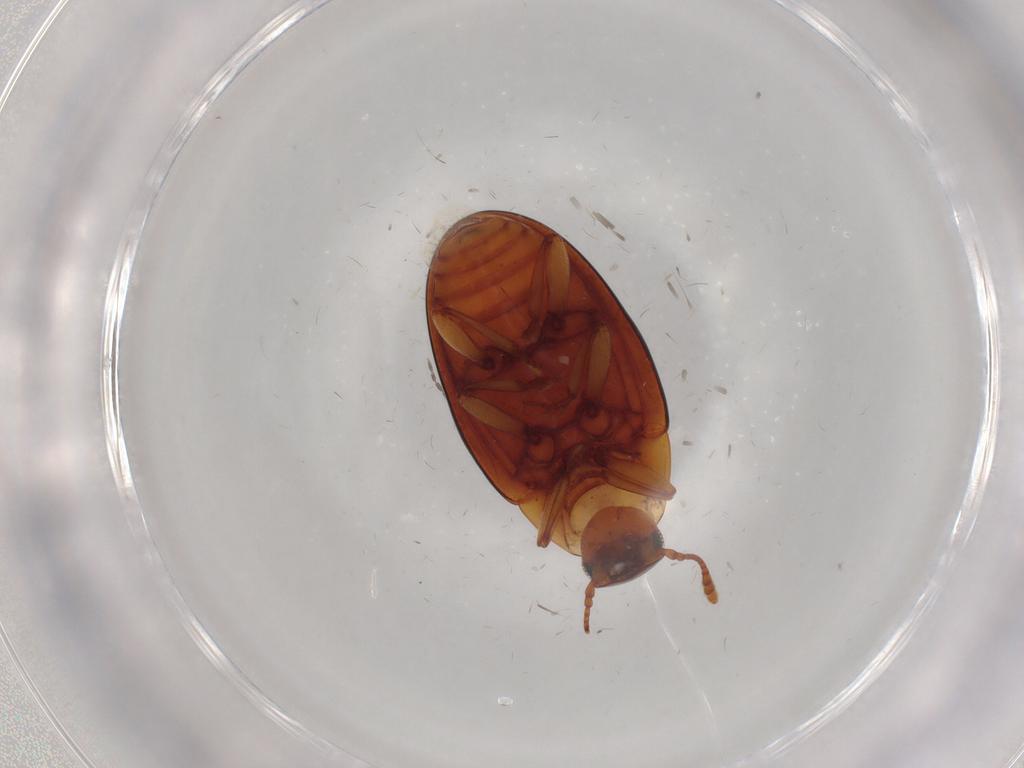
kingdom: Animalia
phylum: Arthropoda
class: Insecta
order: Coleoptera
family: Zopheridae
